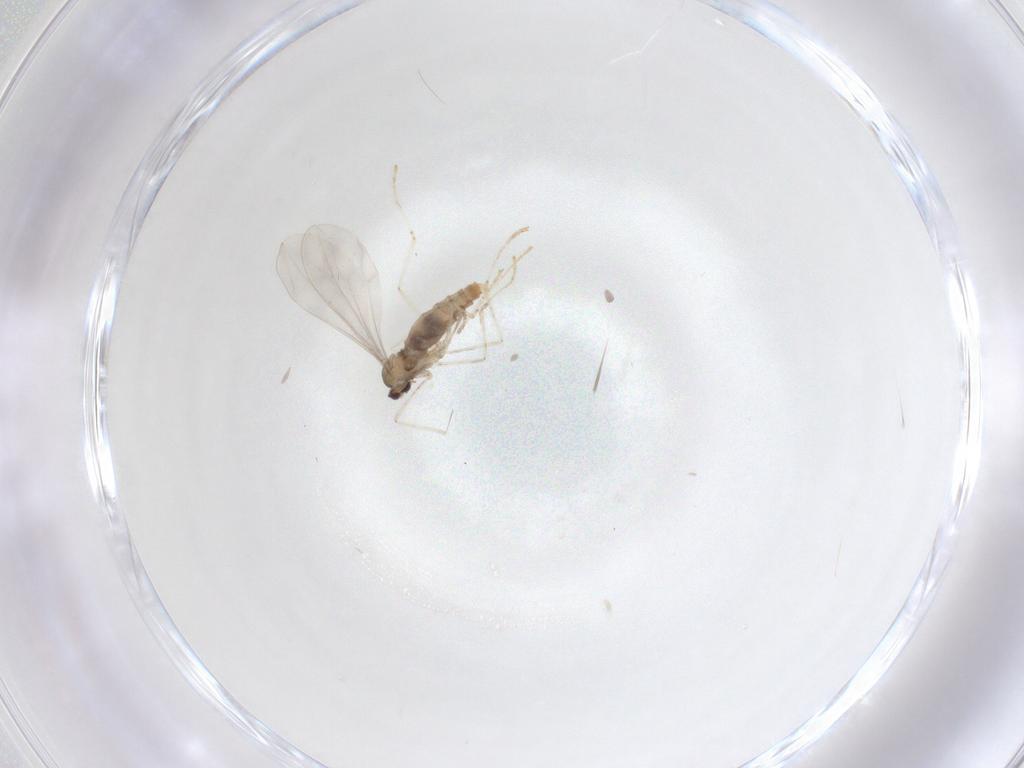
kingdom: Animalia
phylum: Arthropoda
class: Insecta
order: Diptera
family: Cecidomyiidae
